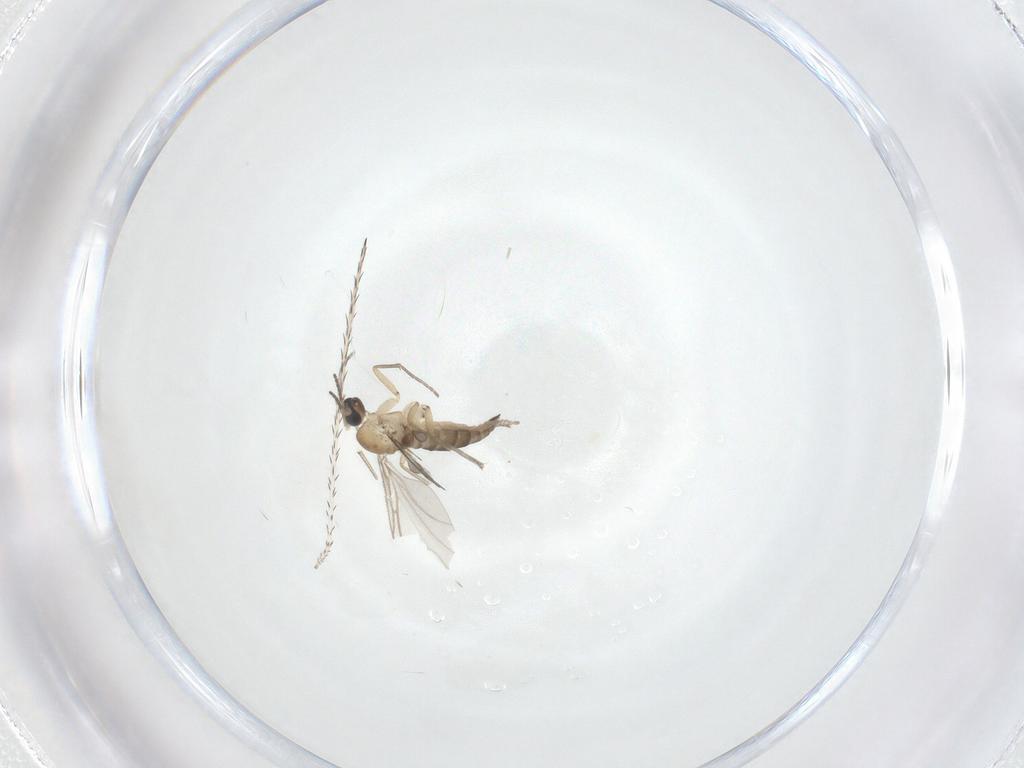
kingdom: Animalia
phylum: Arthropoda
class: Insecta
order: Diptera
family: Sciaridae
